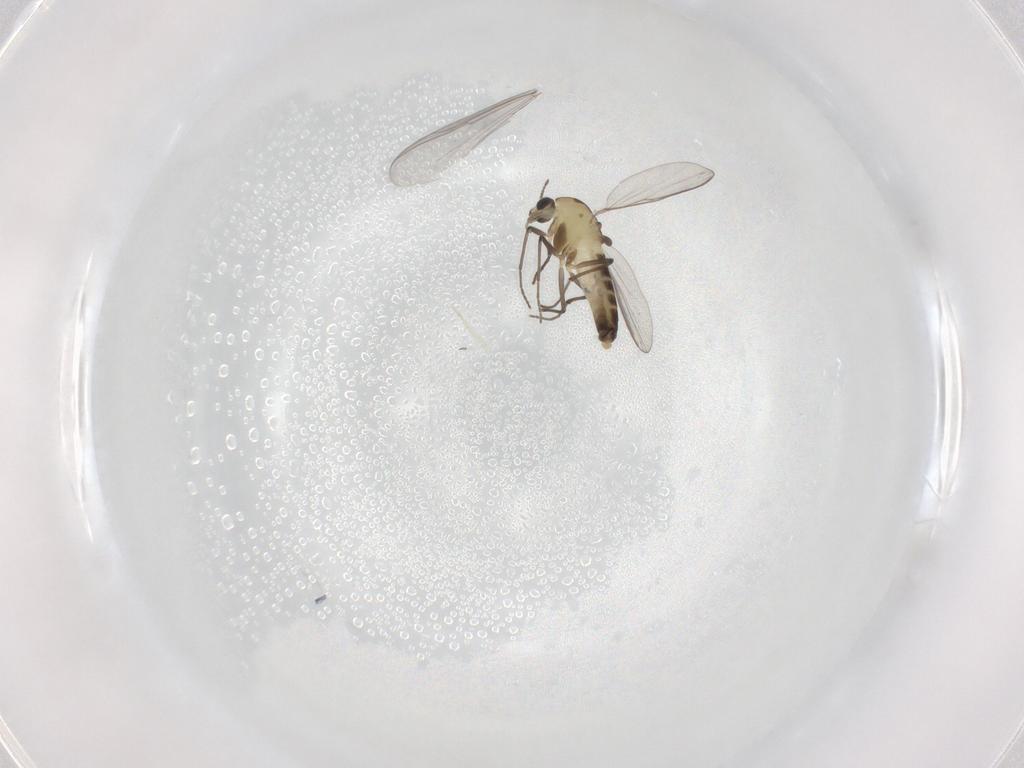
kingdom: Animalia
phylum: Arthropoda
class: Insecta
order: Diptera
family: Chironomidae
